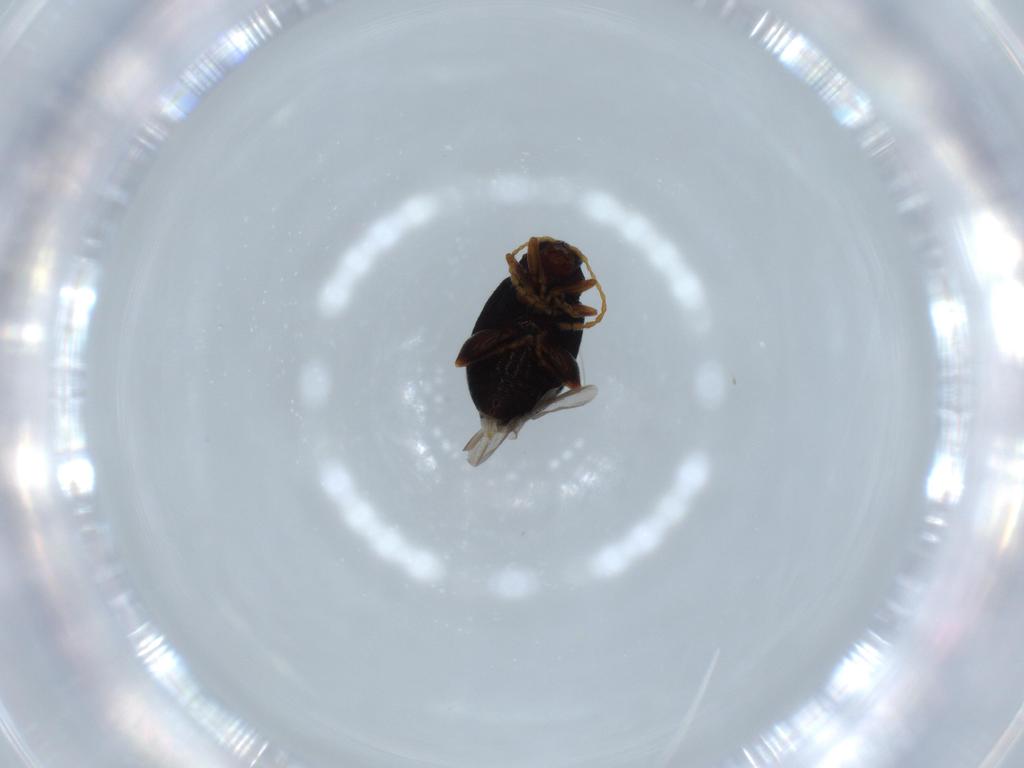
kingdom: Animalia
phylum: Arthropoda
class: Insecta
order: Coleoptera
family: Chrysomelidae
